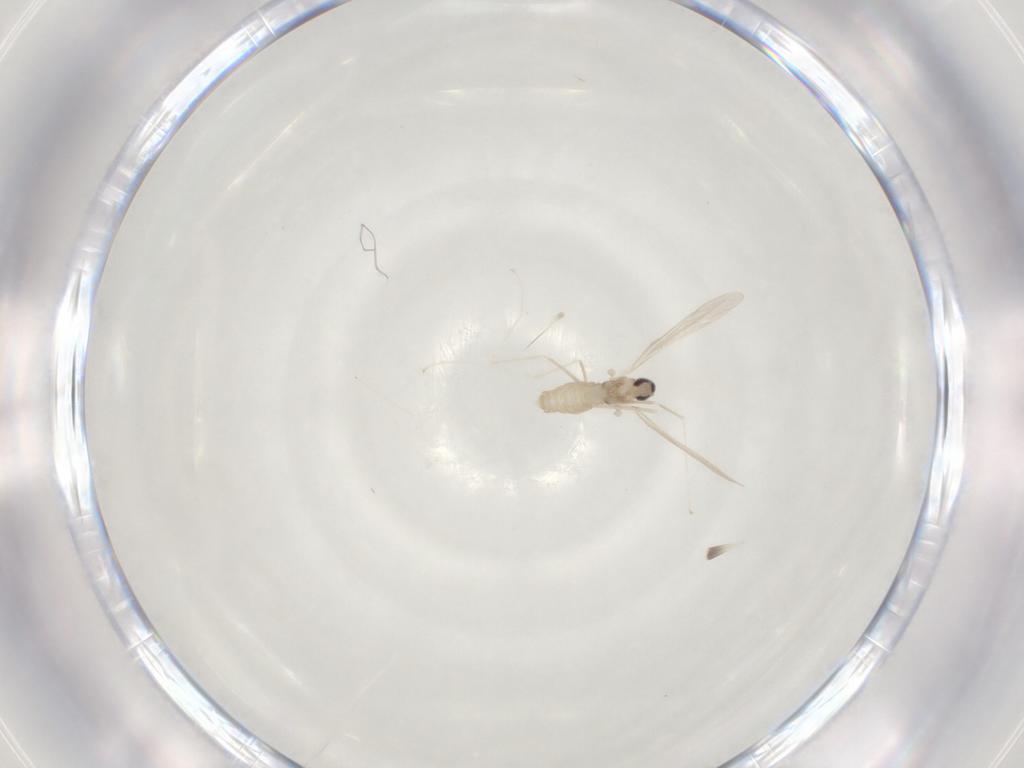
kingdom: Animalia
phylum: Arthropoda
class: Insecta
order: Diptera
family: Cecidomyiidae
